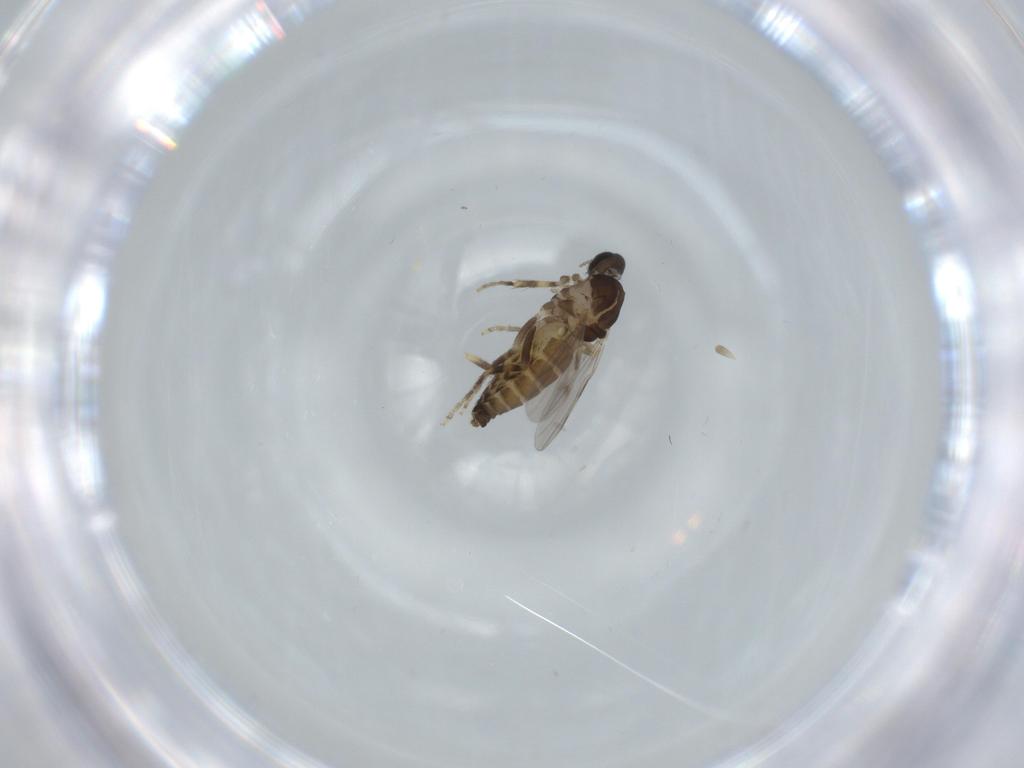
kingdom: Animalia
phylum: Arthropoda
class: Insecta
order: Diptera
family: Ceratopogonidae
